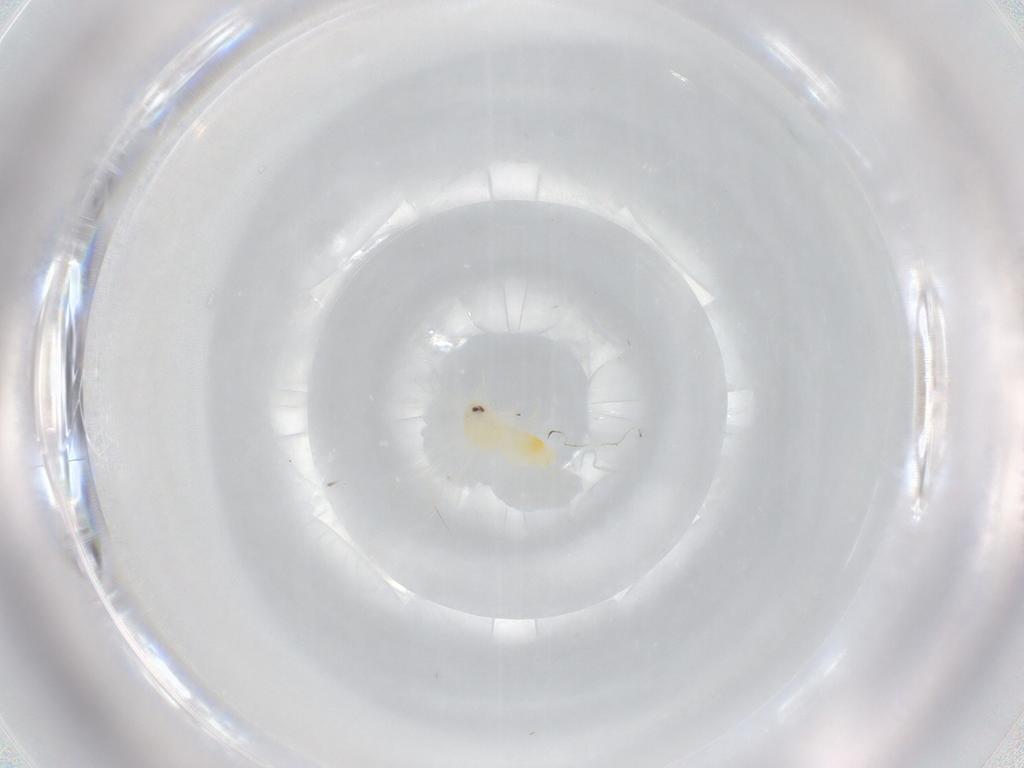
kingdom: Animalia
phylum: Arthropoda
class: Insecta
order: Hemiptera
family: Aleyrodidae
